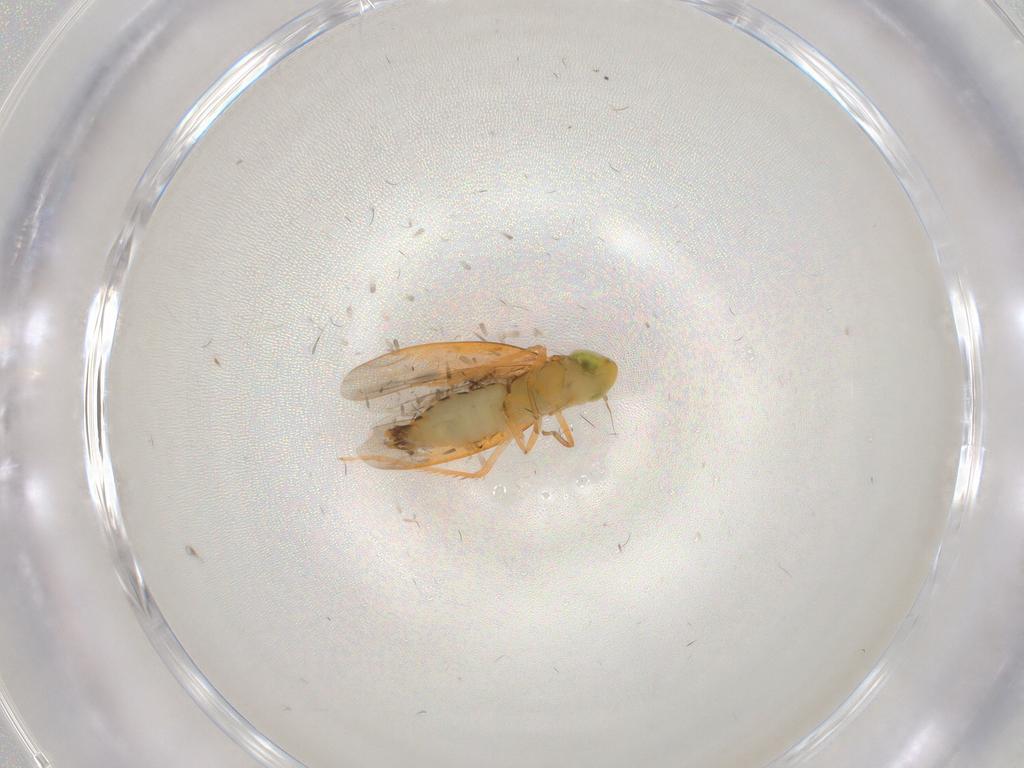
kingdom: Animalia
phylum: Arthropoda
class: Insecta
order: Hemiptera
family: Cicadellidae
